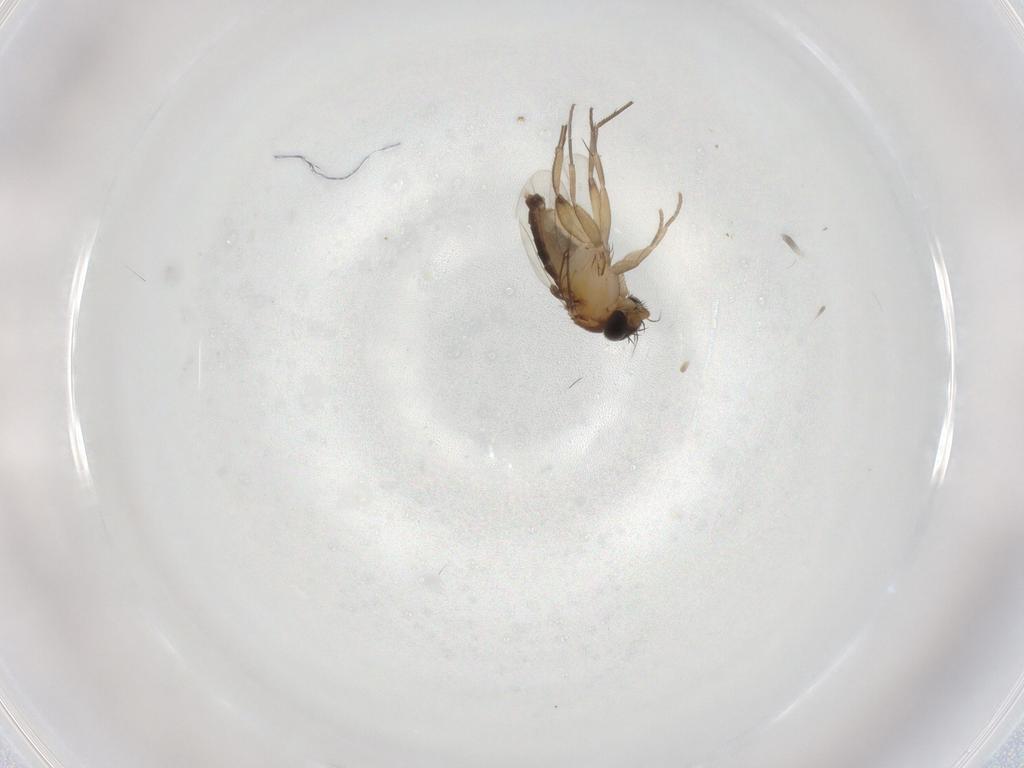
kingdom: Animalia
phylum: Arthropoda
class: Insecta
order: Diptera
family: Phoridae
